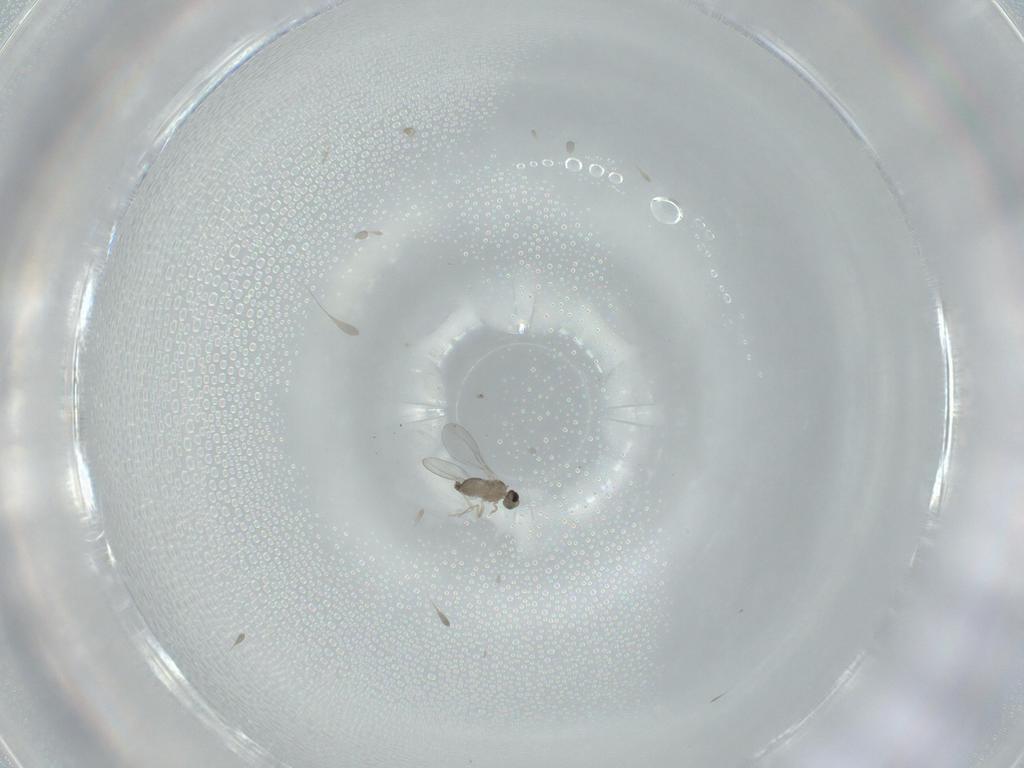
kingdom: Animalia
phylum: Arthropoda
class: Insecta
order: Diptera
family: Cecidomyiidae
